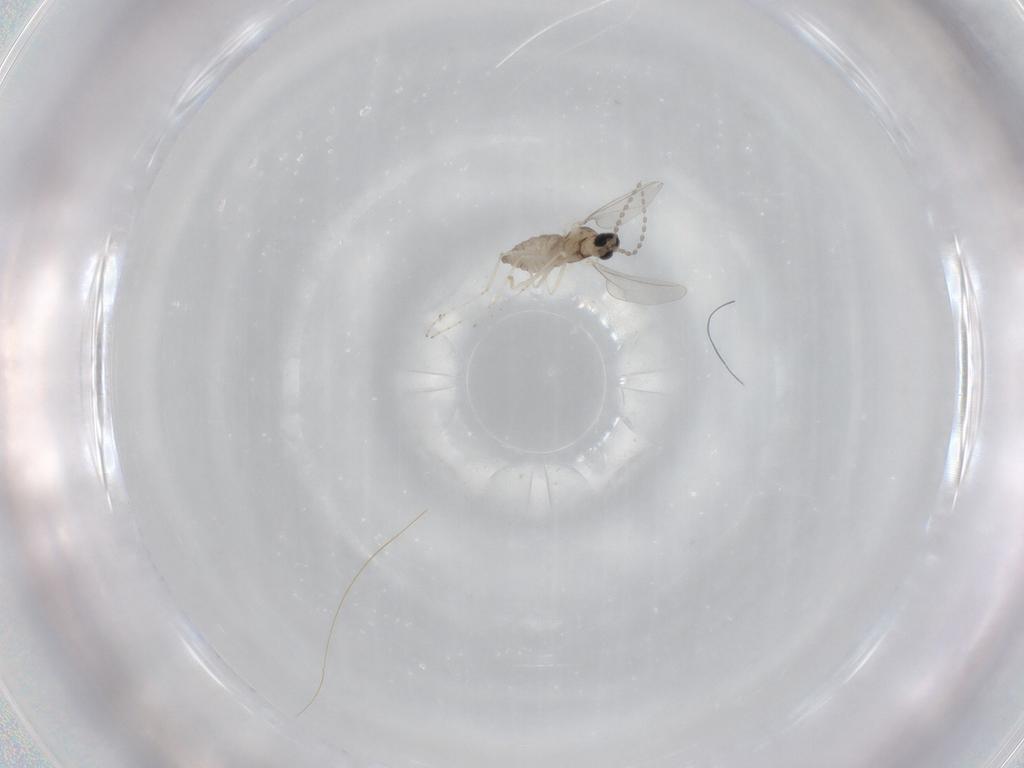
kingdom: Animalia
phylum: Arthropoda
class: Insecta
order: Diptera
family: Cecidomyiidae
